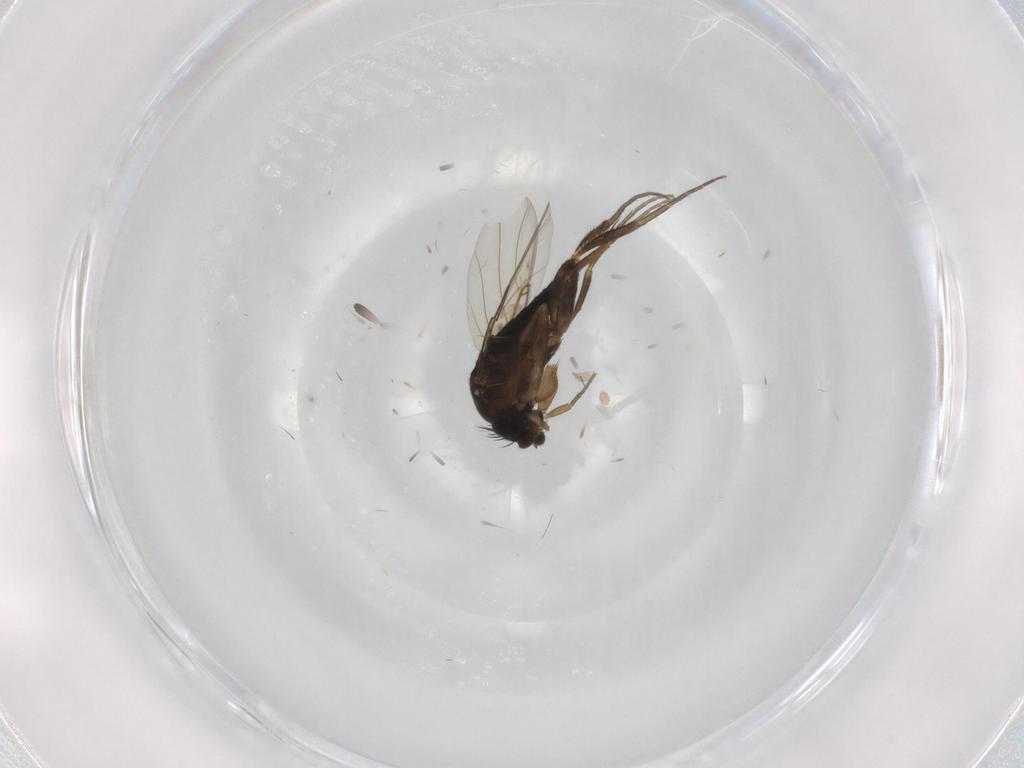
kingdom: Animalia
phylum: Arthropoda
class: Insecta
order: Diptera
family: Phoridae
